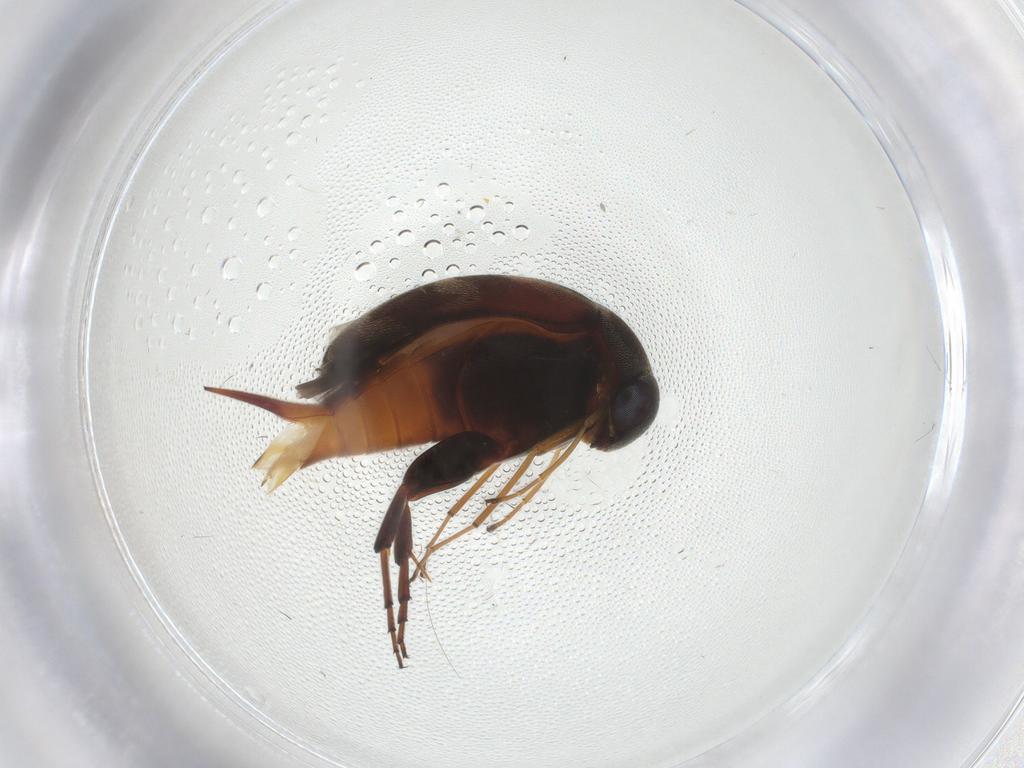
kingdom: Animalia
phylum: Arthropoda
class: Insecta
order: Coleoptera
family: Mordellidae
